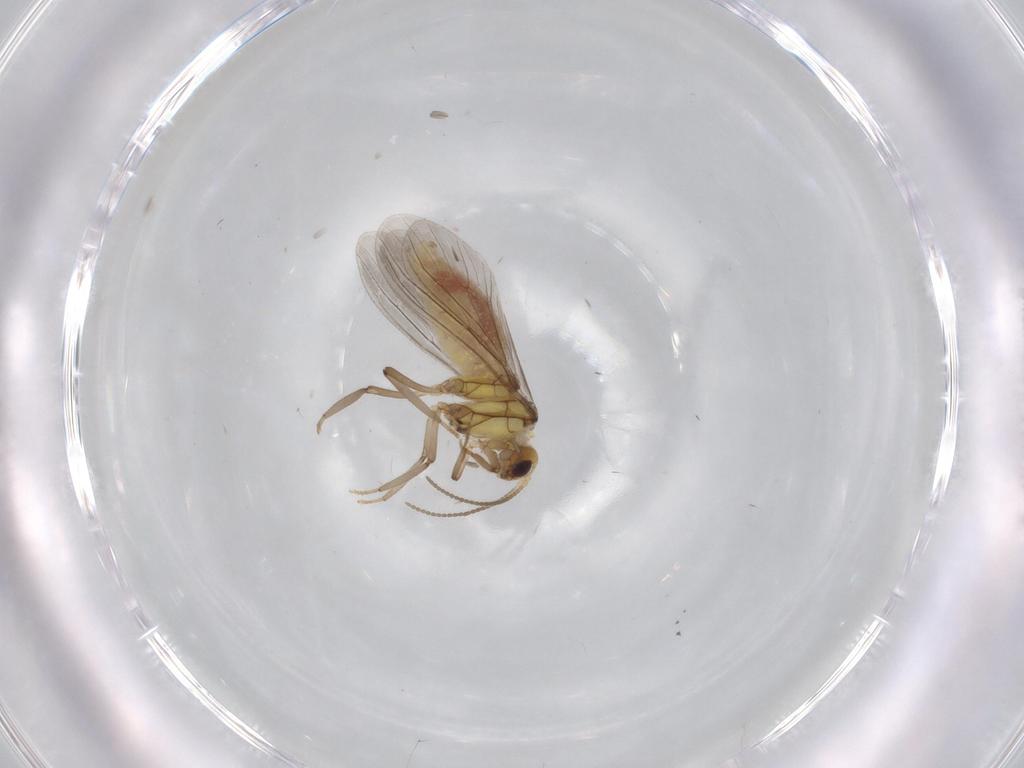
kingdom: Animalia
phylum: Arthropoda
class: Insecta
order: Neuroptera
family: Coniopterygidae
